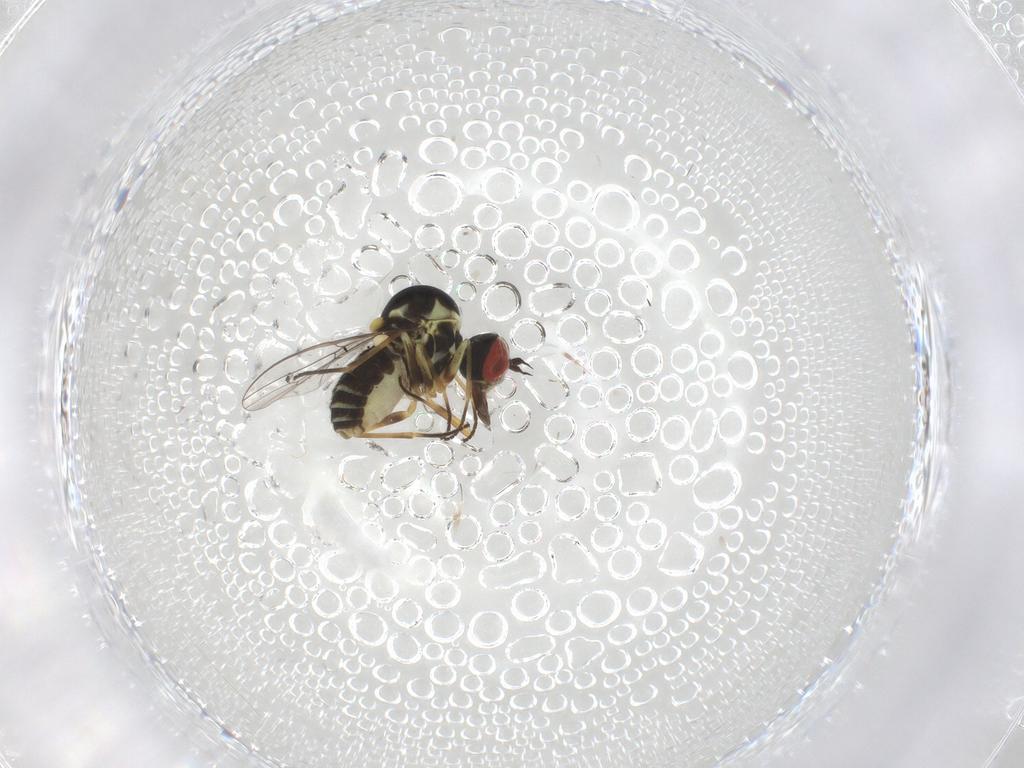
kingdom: Animalia
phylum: Arthropoda
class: Insecta
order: Diptera
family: Bombyliidae
